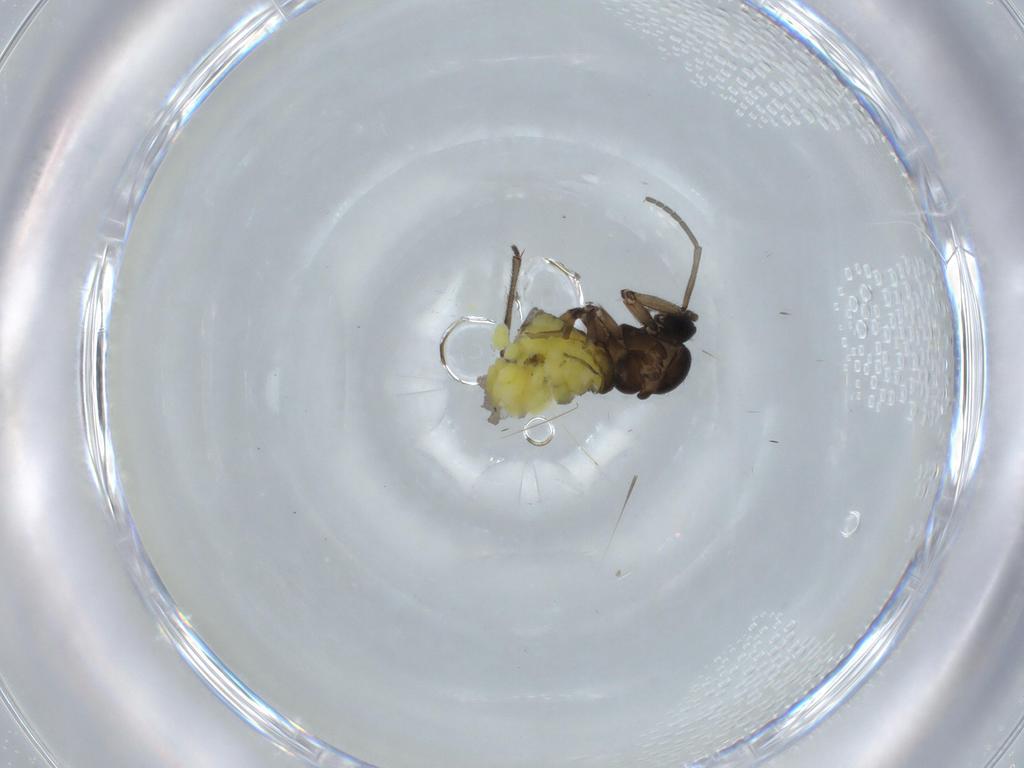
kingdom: Animalia
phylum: Arthropoda
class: Insecta
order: Diptera
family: Sciaridae
